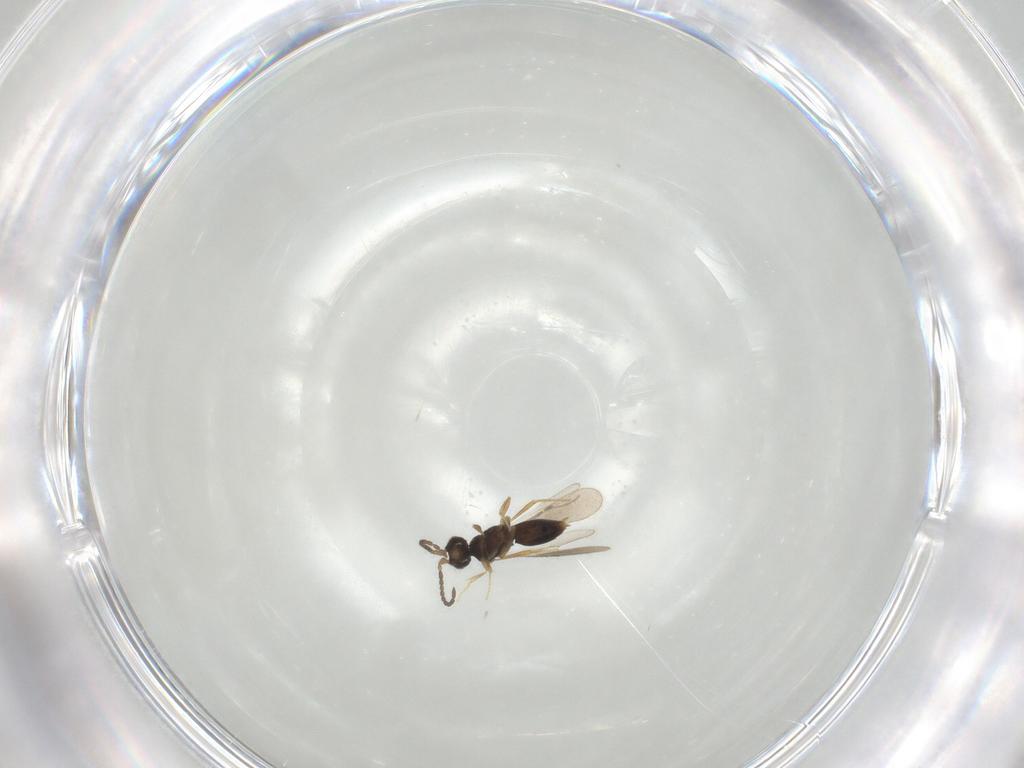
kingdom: Animalia
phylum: Arthropoda
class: Insecta
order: Hymenoptera
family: Ceraphronidae
